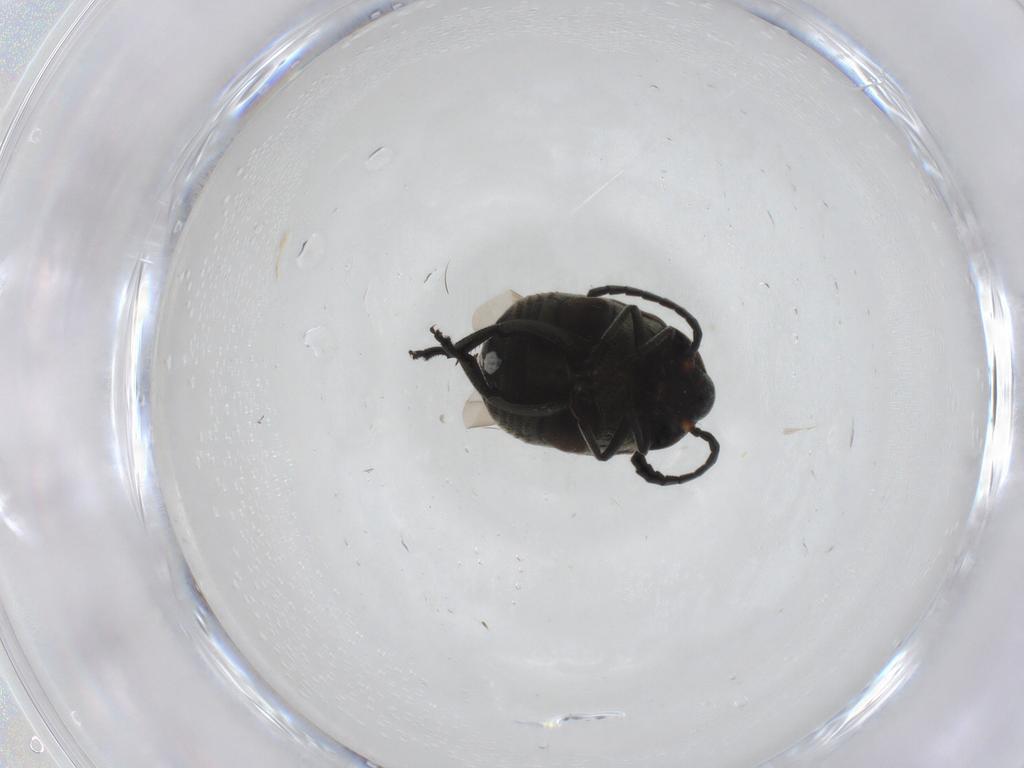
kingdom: Animalia
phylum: Arthropoda
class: Insecta
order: Coleoptera
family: Chrysomelidae
